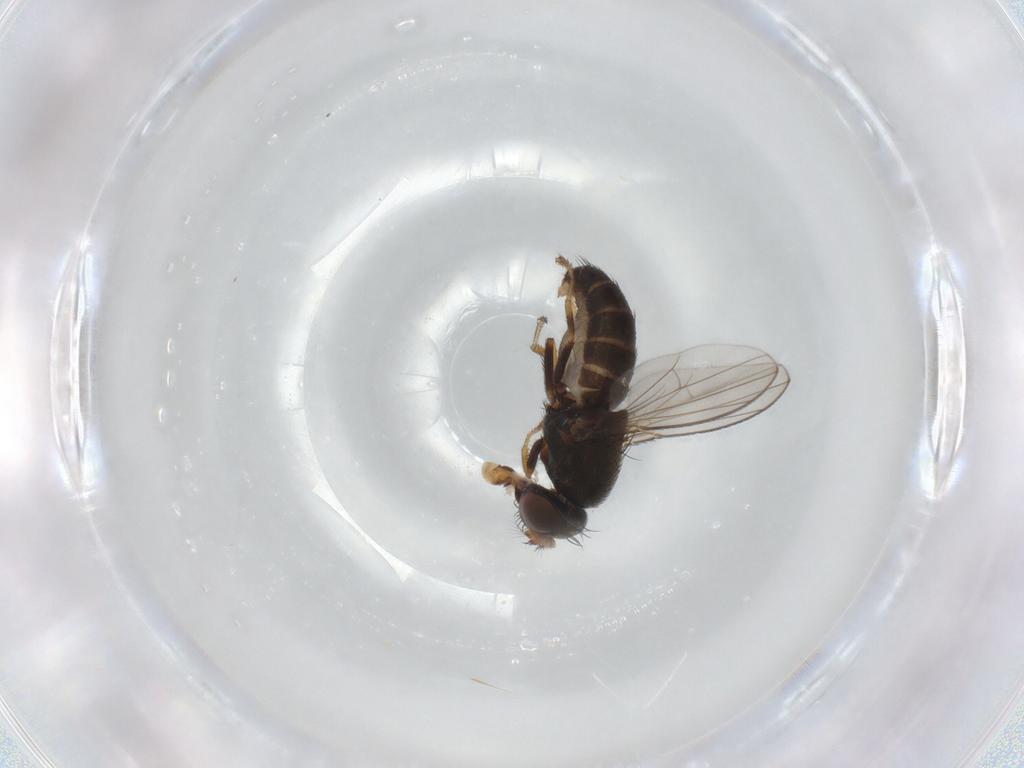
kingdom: Animalia
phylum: Arthropoda
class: Insecta
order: Diptera
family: Ephydridae
